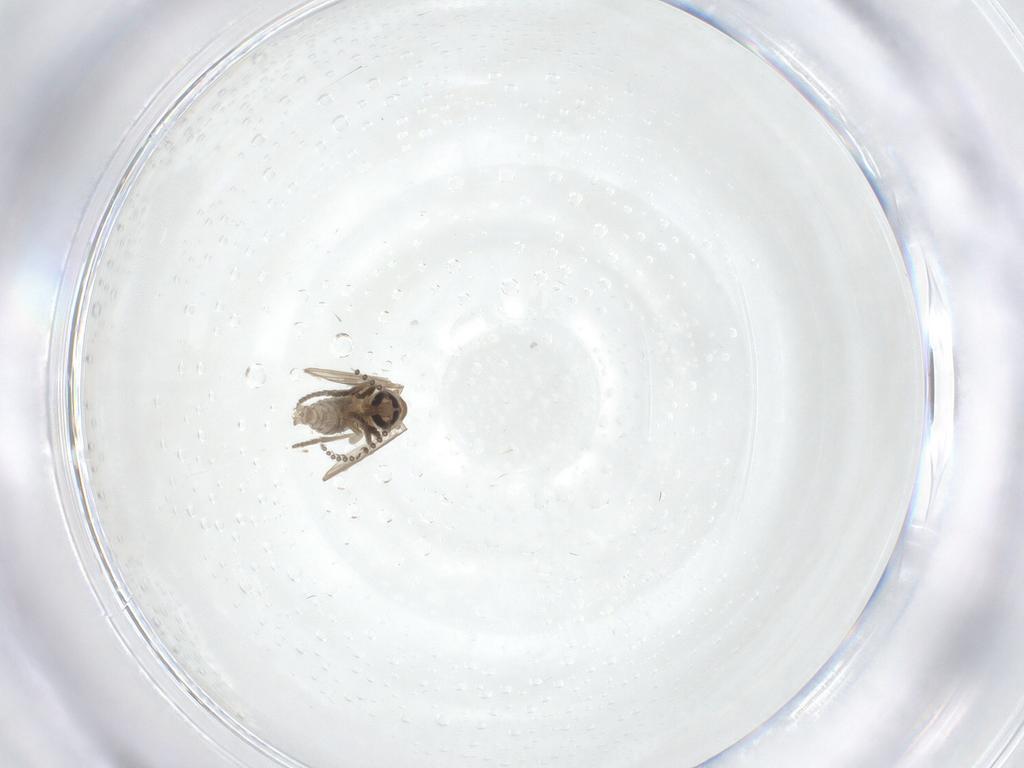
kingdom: Animalia
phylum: Arthropoda
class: Insecta
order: Diptera
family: Psychodidae
